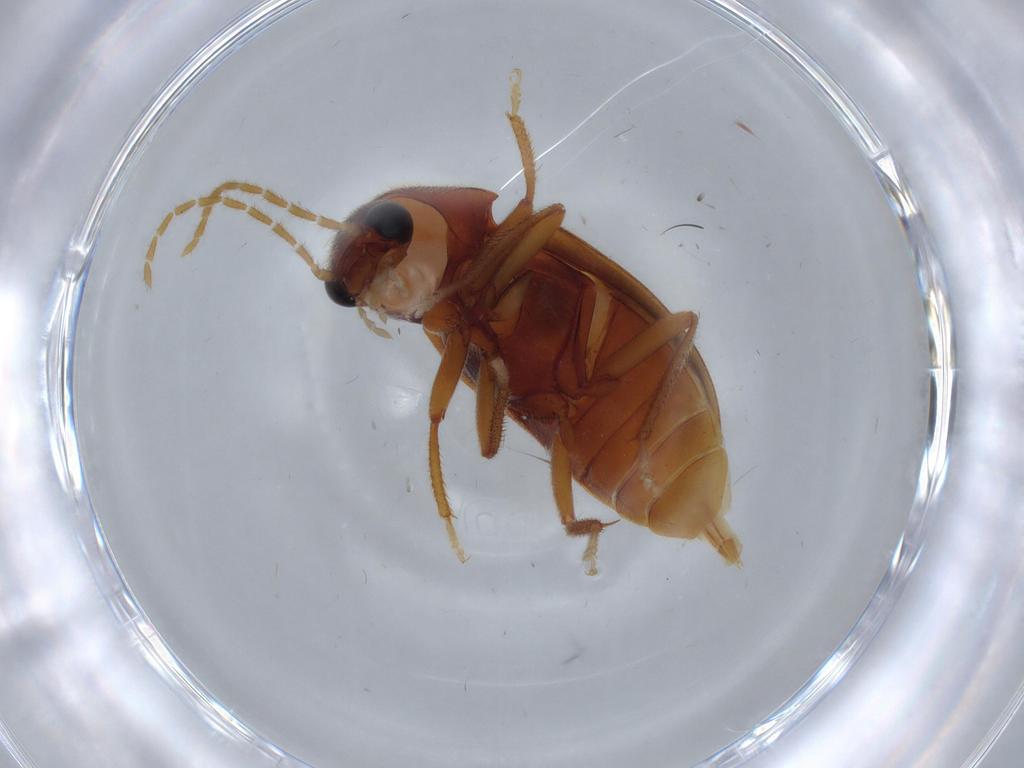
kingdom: Animalia
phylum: Arthropoda
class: Insecta
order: Coleoptera
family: Ptilodactylidae
